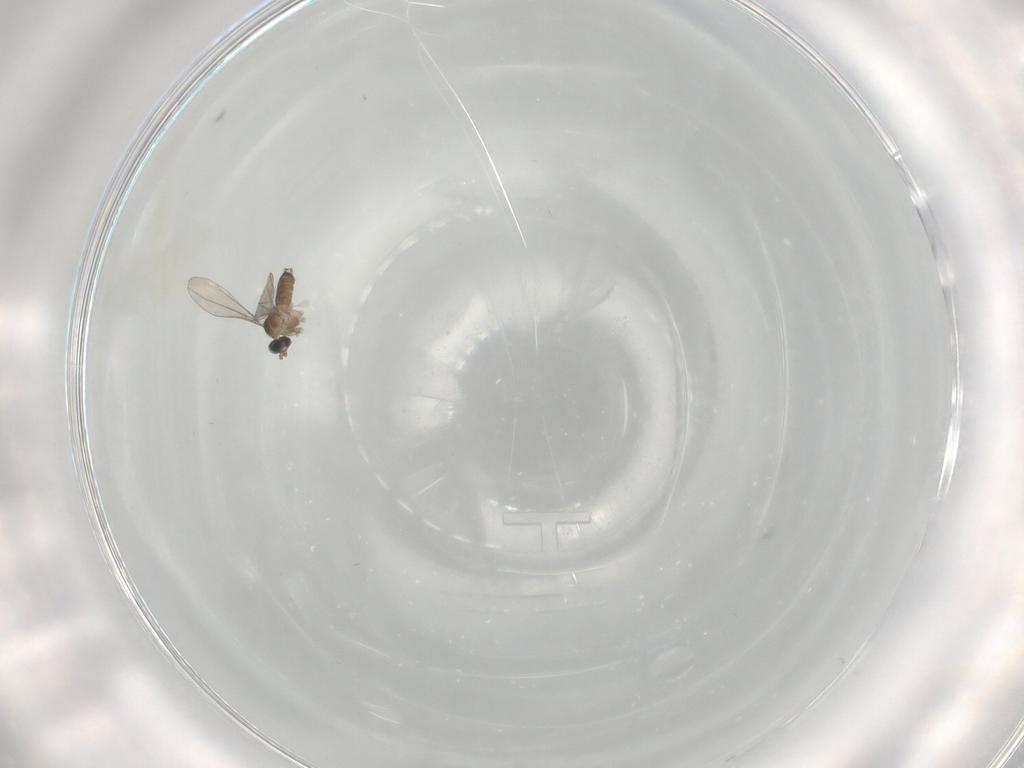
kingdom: Animalia
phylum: Arthropoda
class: Insecta
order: Diptera
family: Cecidomyiidae
